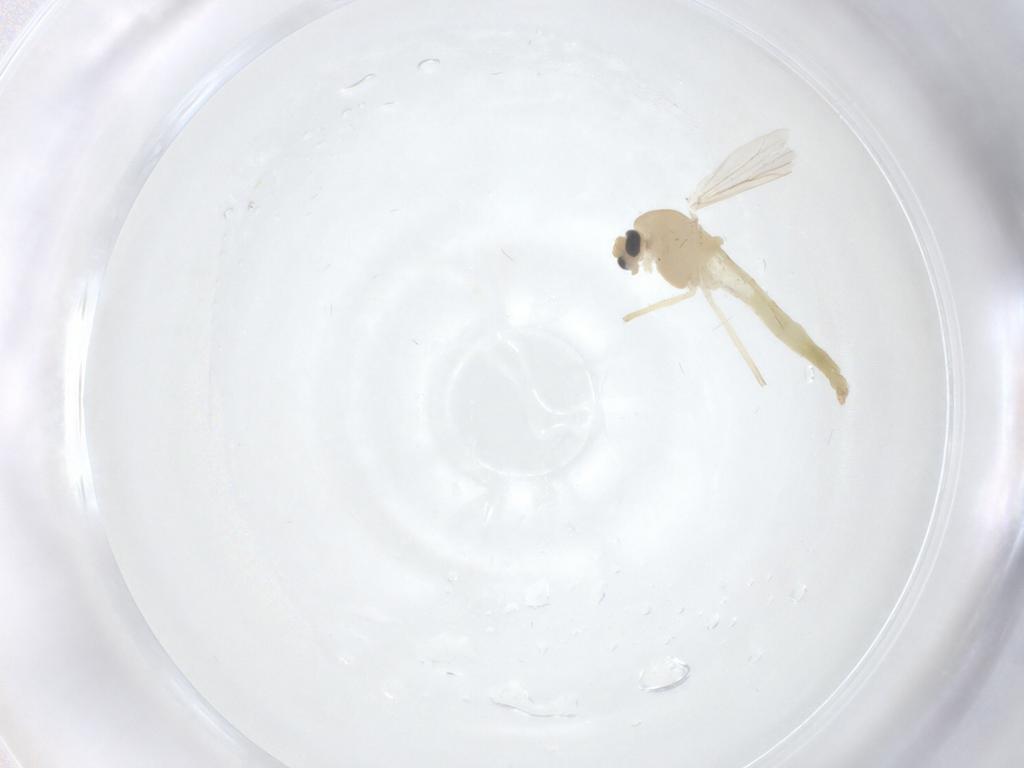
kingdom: Animalia
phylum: Arthropoda
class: Insecta
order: Diptera
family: Chironomidae
